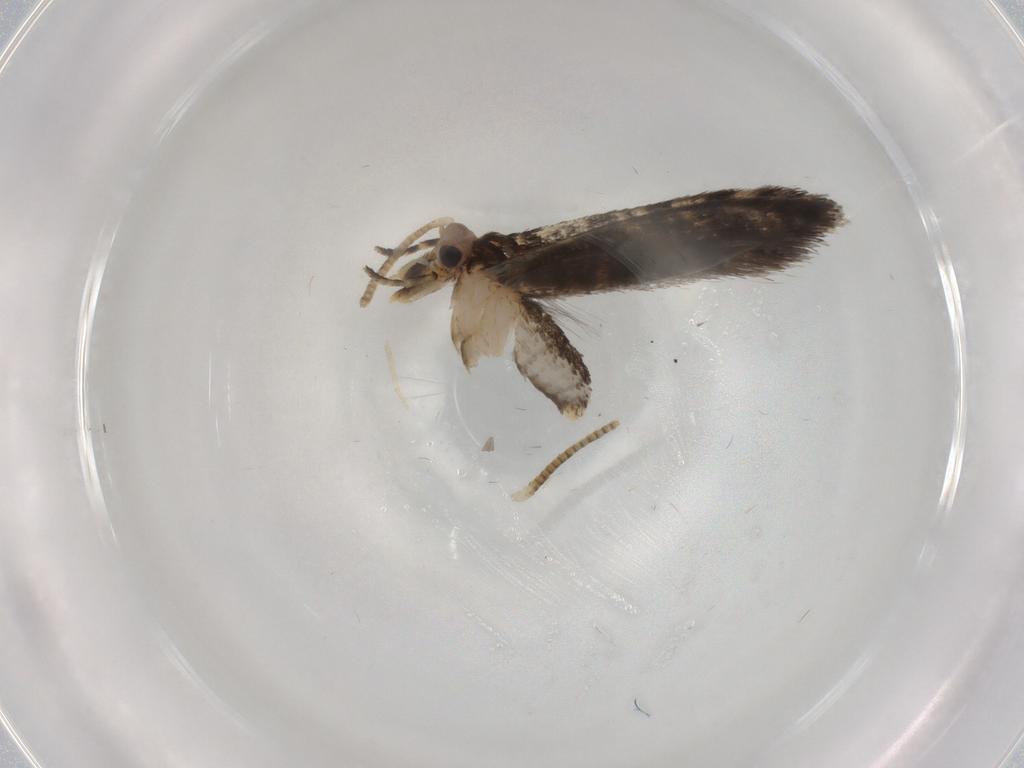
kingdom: Animalia
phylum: Arthropoda
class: Insecta
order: Lepidoptera
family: Tineidae
